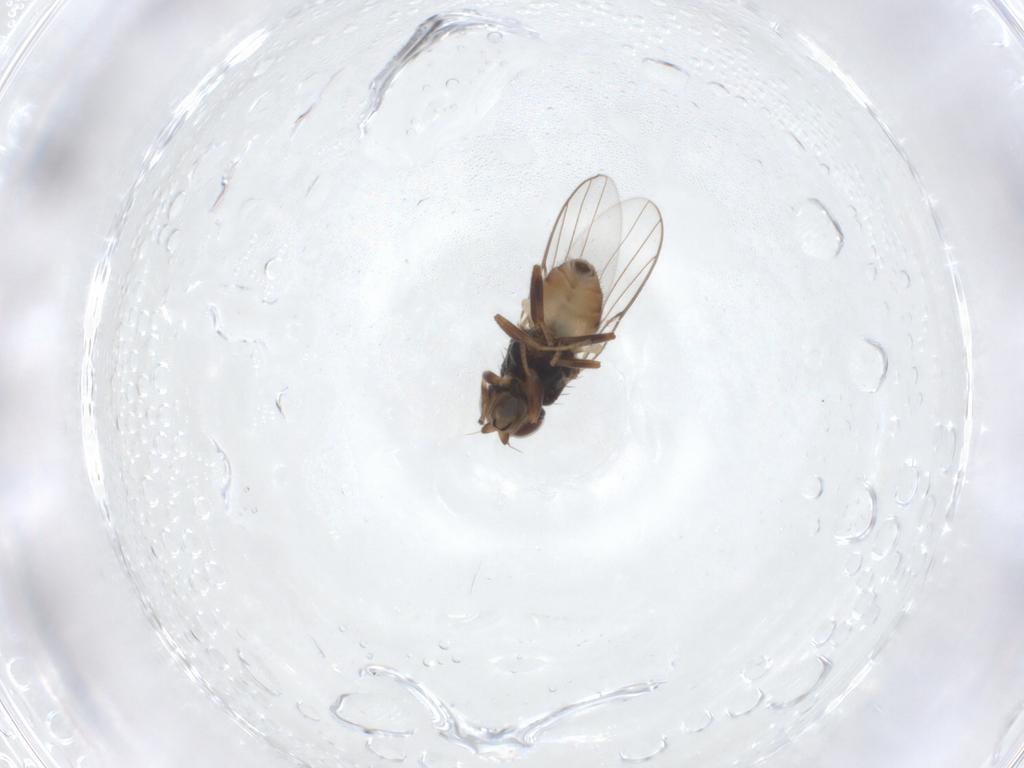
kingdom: Animalia
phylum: Arthropoda
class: Insecta
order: Diptera
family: Chloropidae
